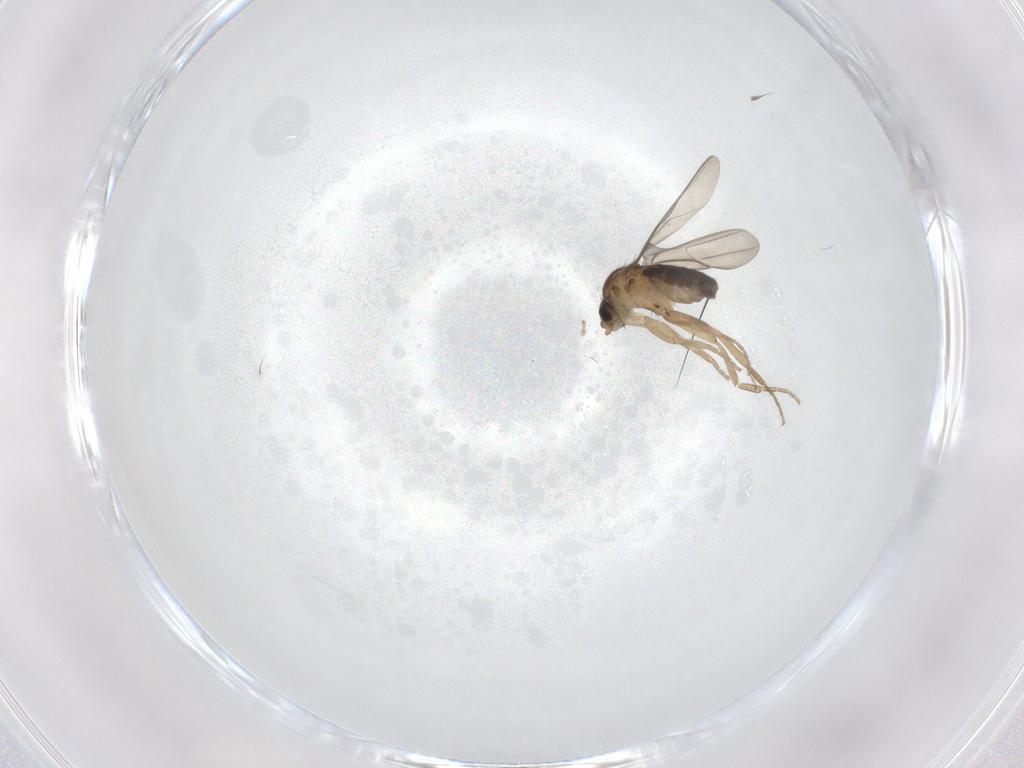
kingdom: Animalia
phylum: Arthropoda
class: Insecta
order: Diptera
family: Phoridae
